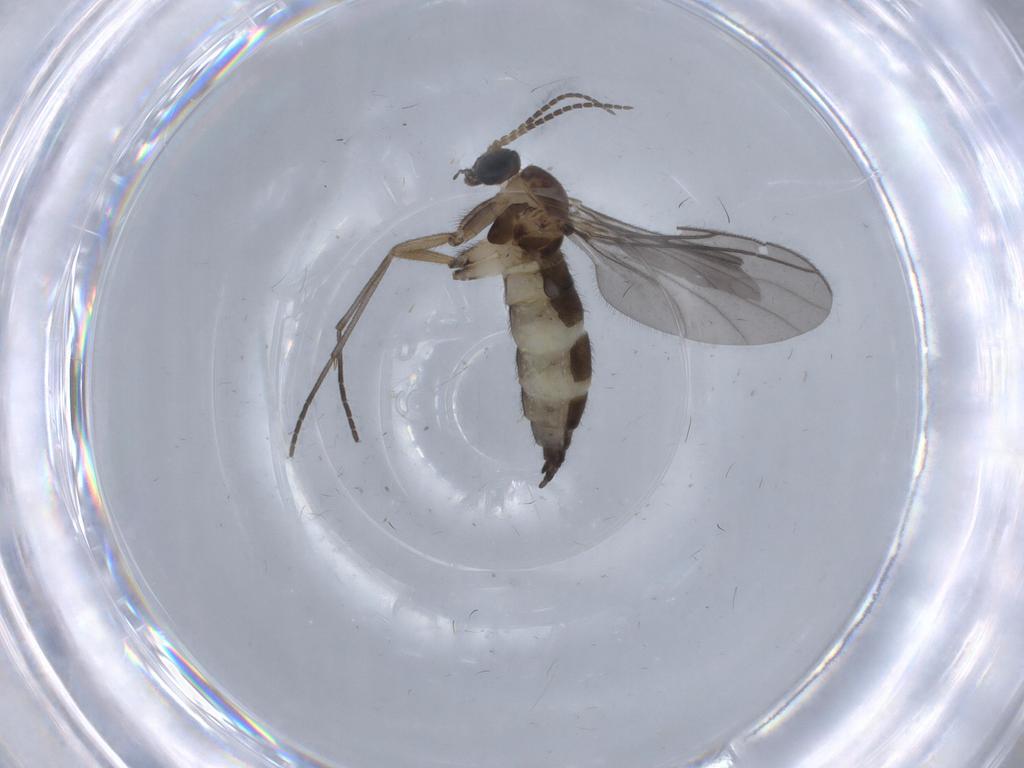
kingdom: Animalia
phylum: Arthropoda
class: Insecta
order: Diptera
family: Sciaridae
